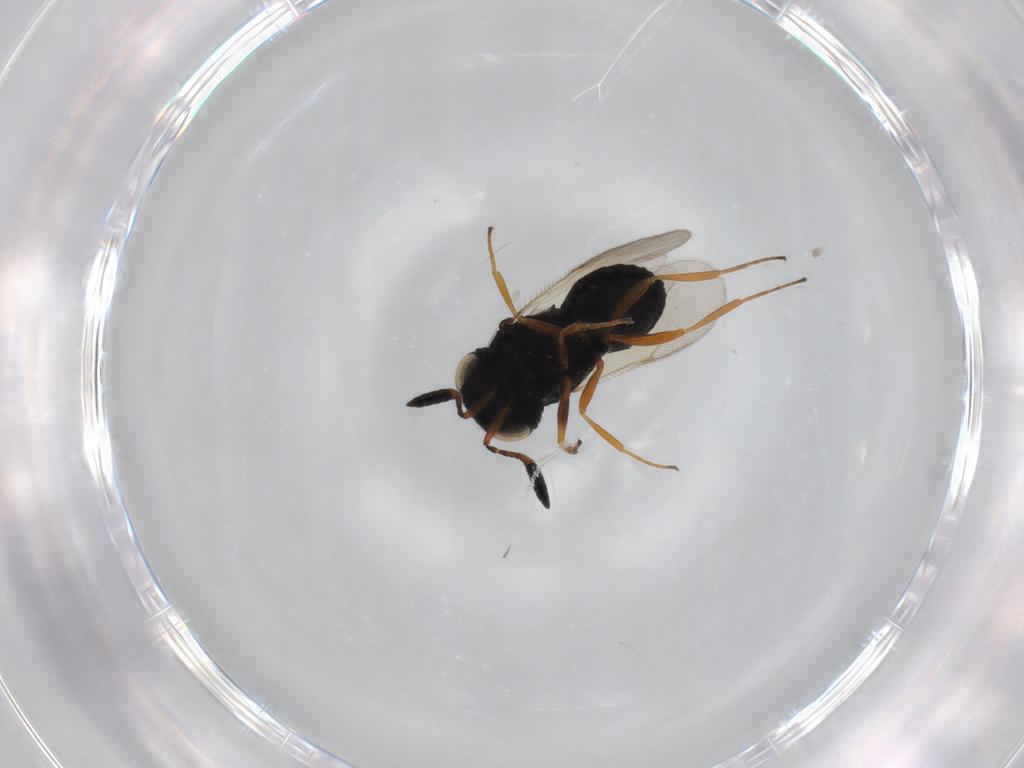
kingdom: Animalia
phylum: Arthropoda
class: Insecta
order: Hymenoptera
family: Scelionidae
